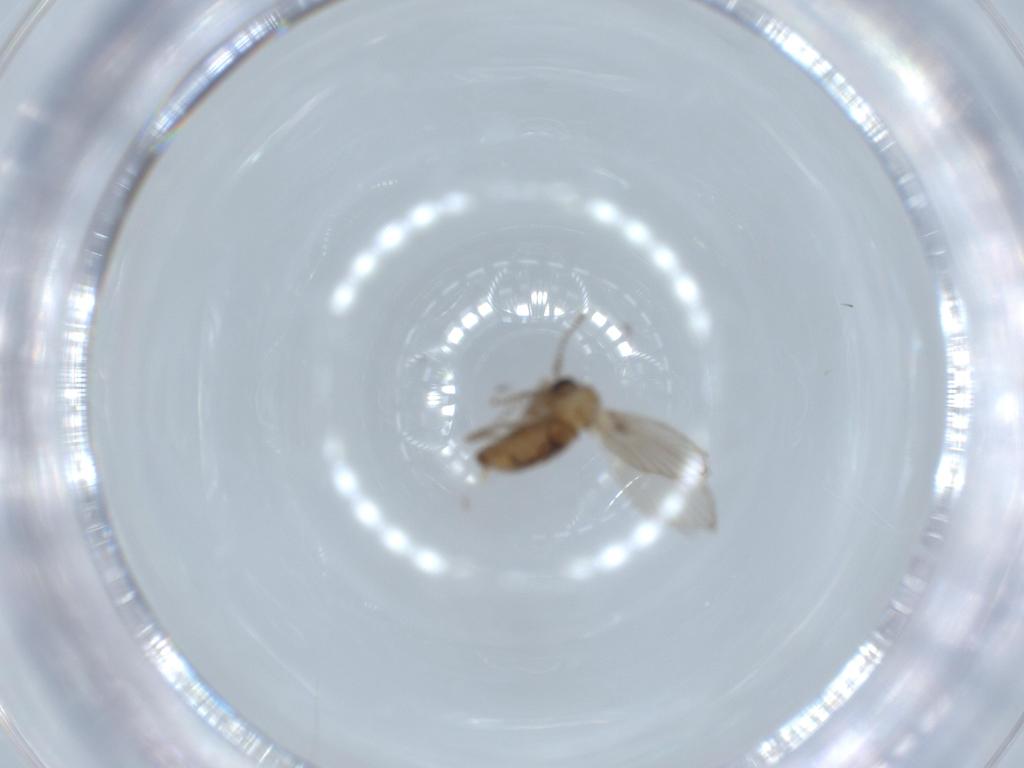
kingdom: Animalia
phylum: Arthropoda
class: Insecta
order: Diptera
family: Psychodidae
